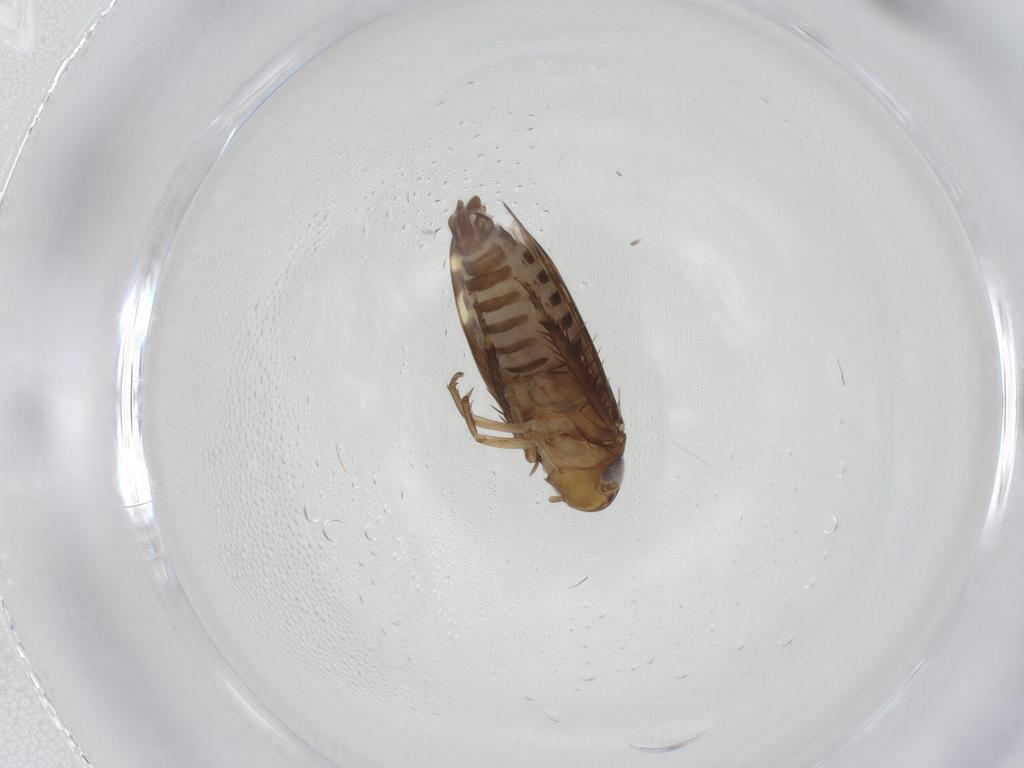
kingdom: Animalia
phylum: Arthropoda
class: Insecta
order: Hemiptera
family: Cicadellidae
